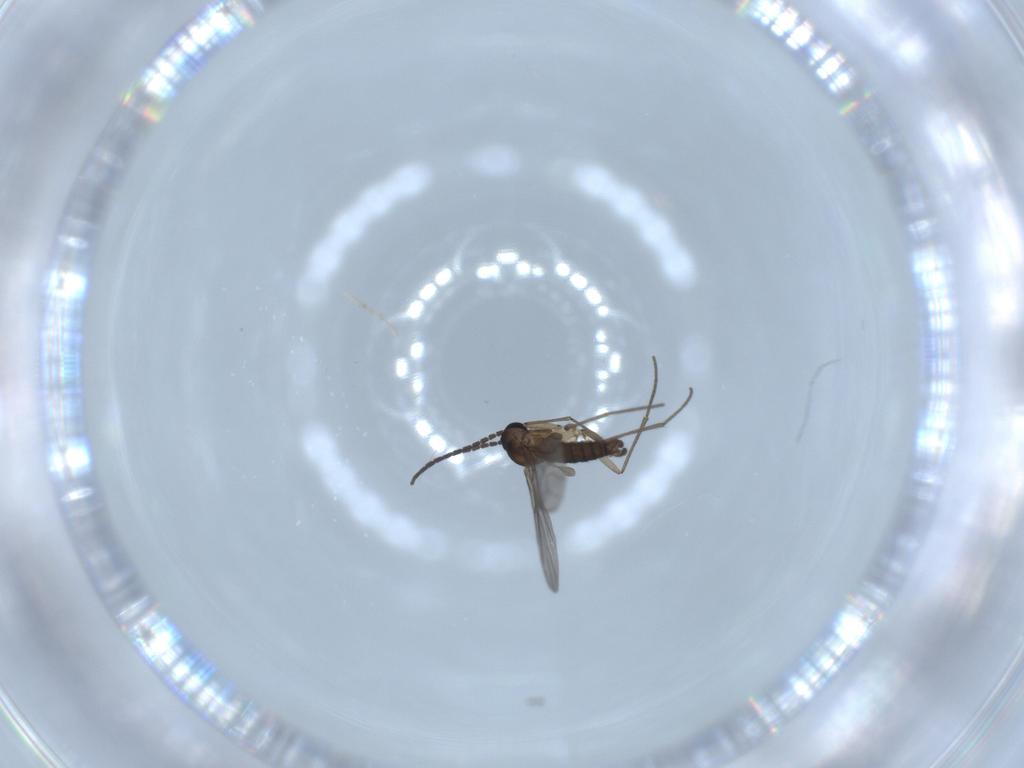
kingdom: Animalia
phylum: Arthropoda
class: Insecta
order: Diptera
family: Sciaridae
